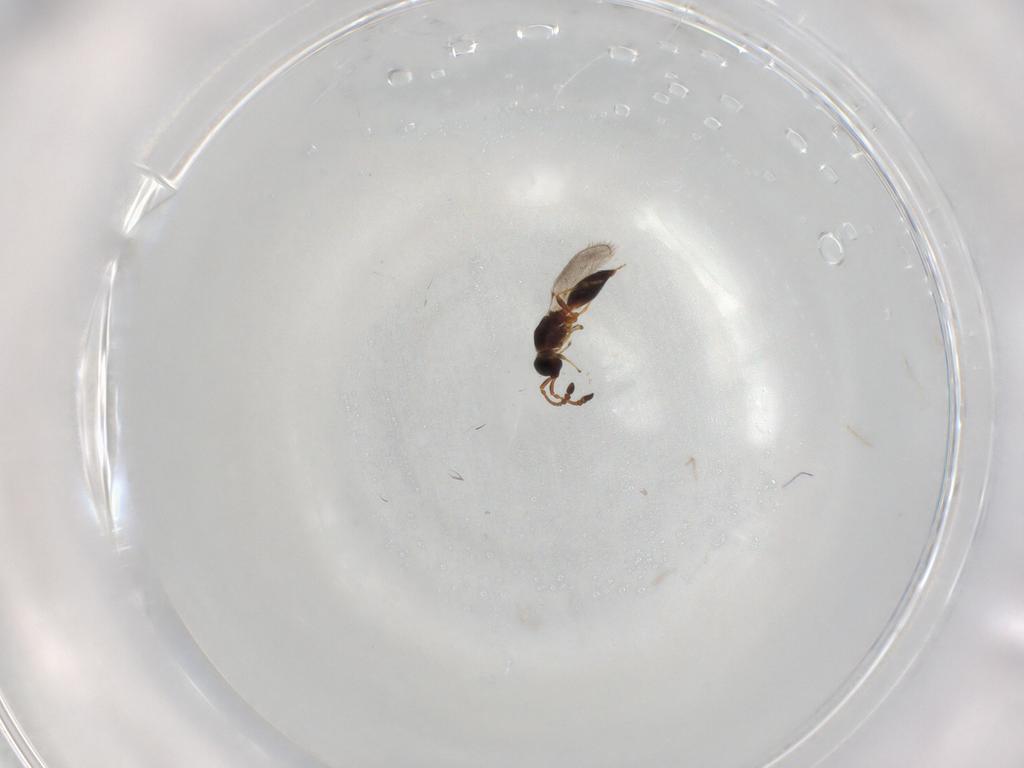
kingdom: Animalia
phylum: Arthropoda
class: Insecta
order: Hymenoptera
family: Diapriidae
